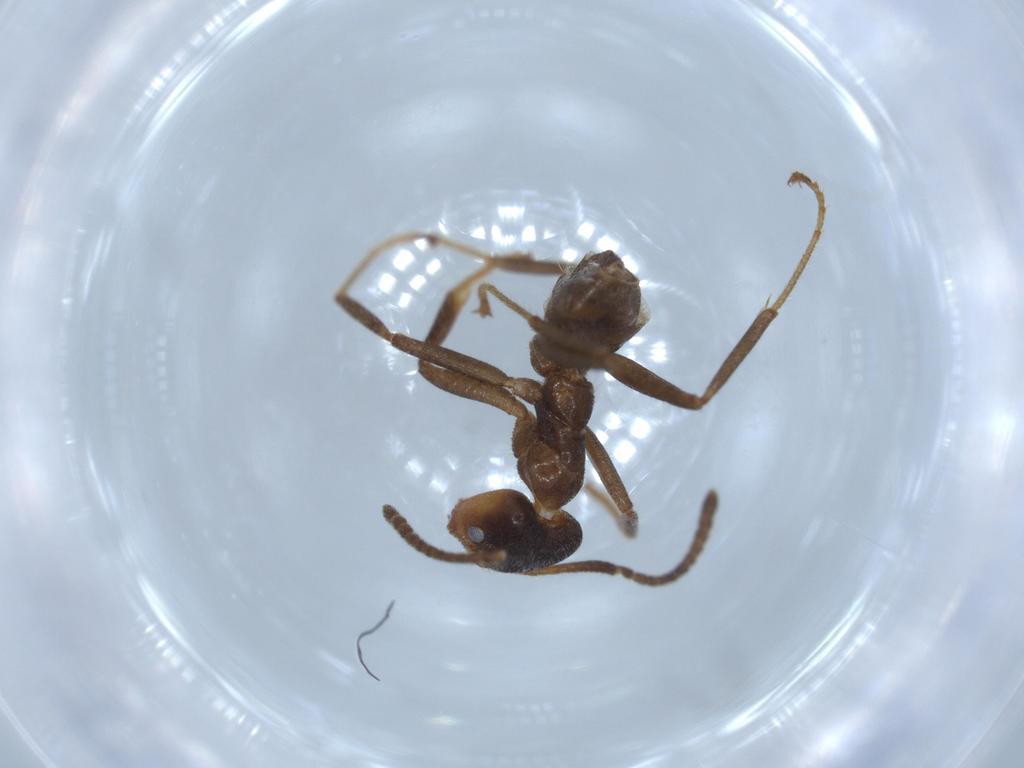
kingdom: Animalia
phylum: Arthropoda
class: Insecta
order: Hymenoptera
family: Formicidae
